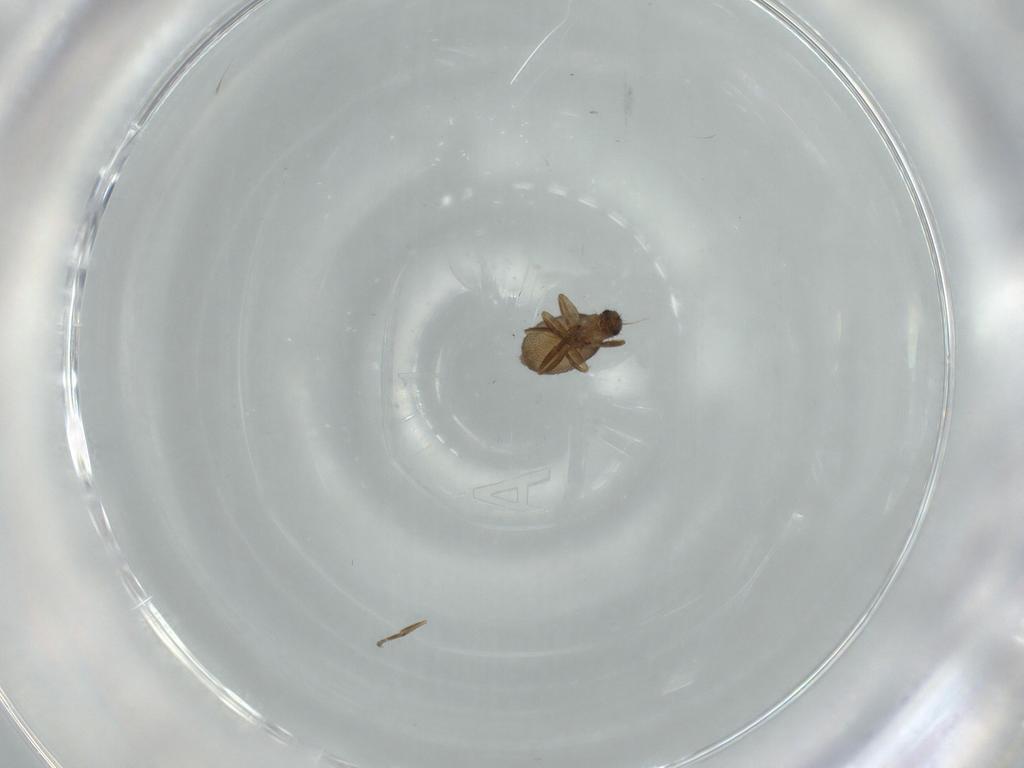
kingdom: Animalia
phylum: Arthropoda
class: Insecta
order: Diptera
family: Phoridae
